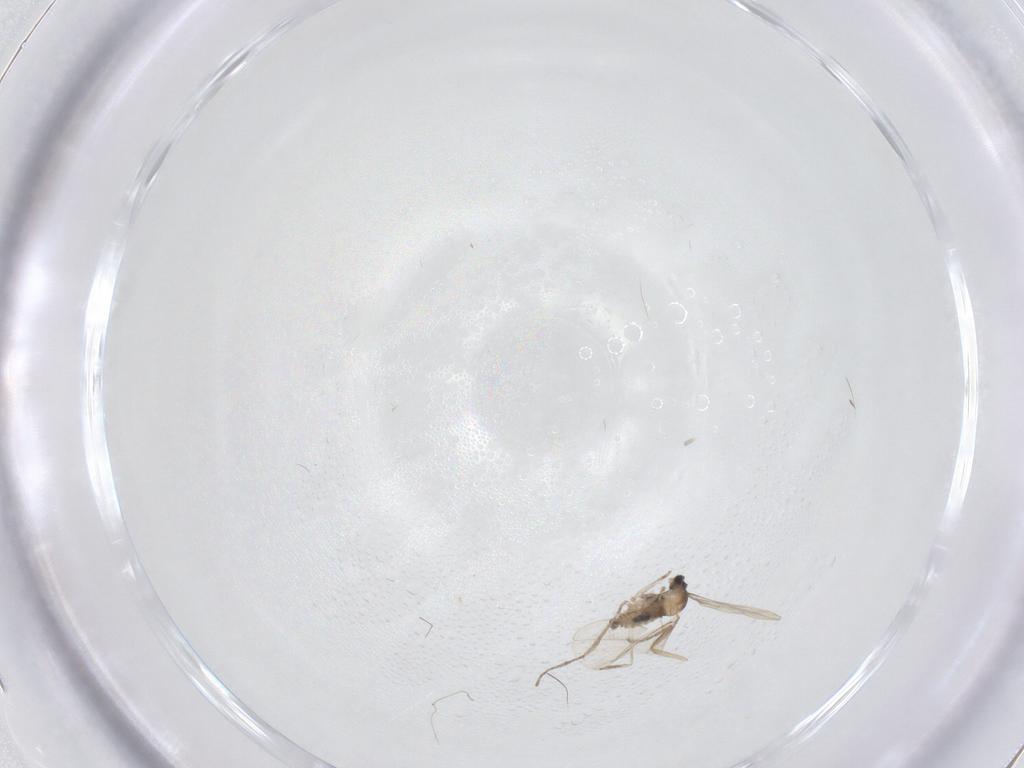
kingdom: Animalia
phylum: Arthropoda
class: Insecta
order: Diptera
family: Cecidomyiidae
